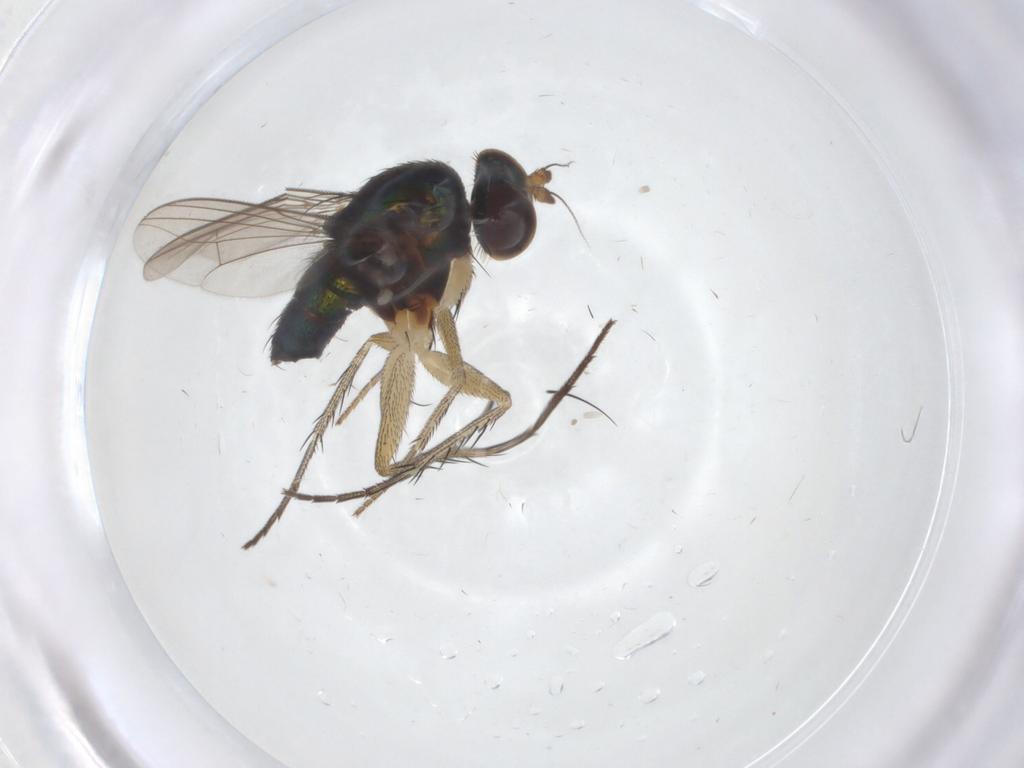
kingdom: Animalia
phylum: Arthropoda
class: Insecta
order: Diptera
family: Dolichopodidae
